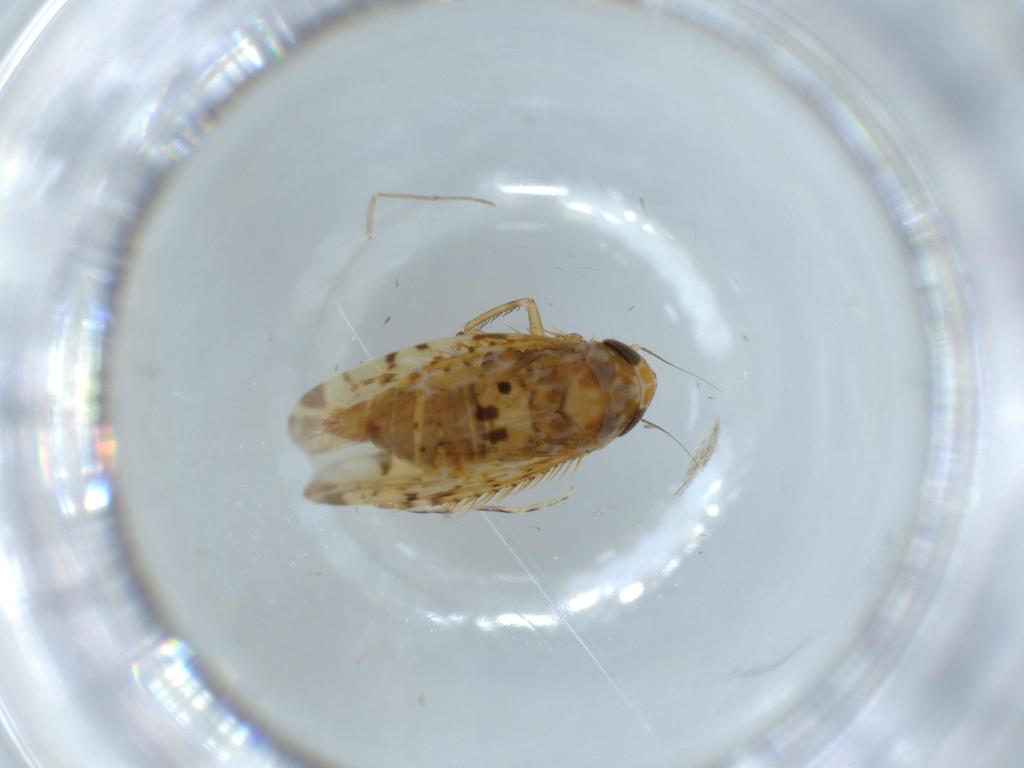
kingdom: Animalia
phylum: Arthropoda
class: Insecta
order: Hemiptera
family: Cicadellidae
